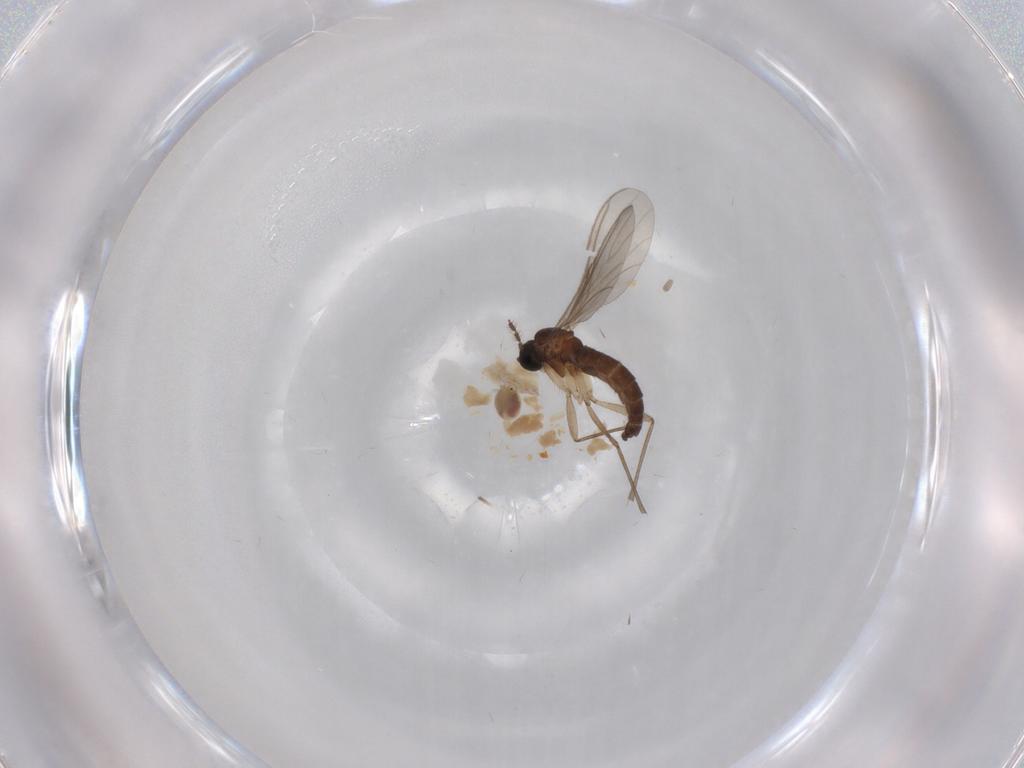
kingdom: Animalia
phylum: Arthropoda
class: Insecta
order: Diptera
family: Chironomidae
